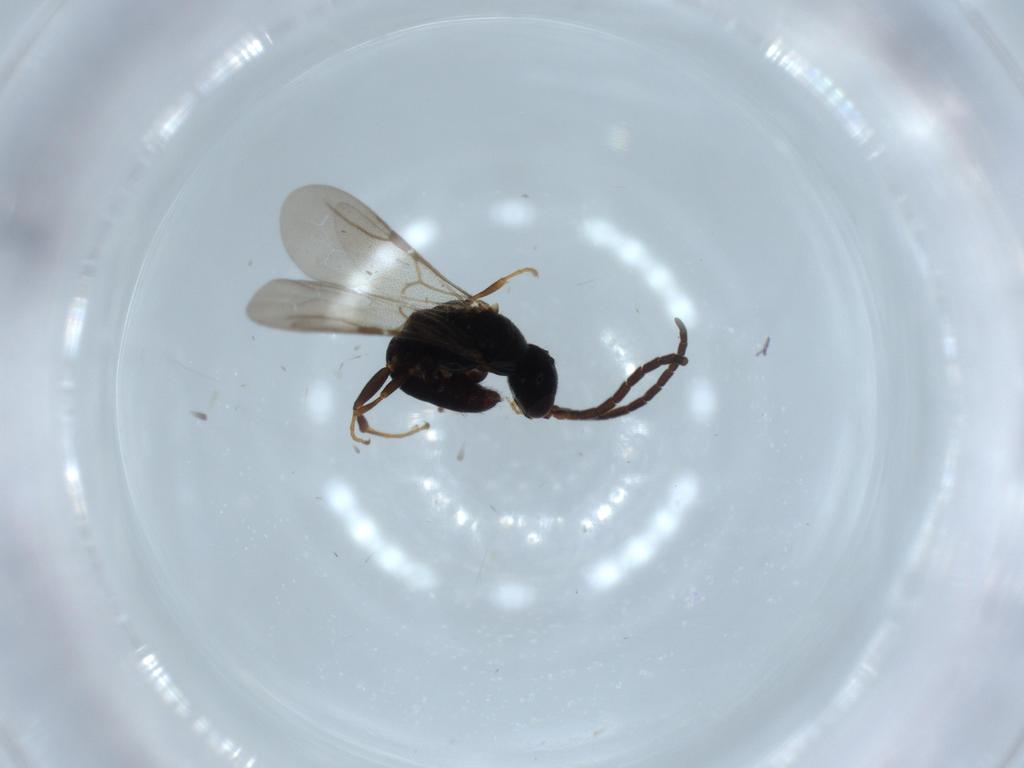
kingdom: Animalia
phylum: Arthropoda
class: Insecta
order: Hymenoptera
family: Bethylidae
